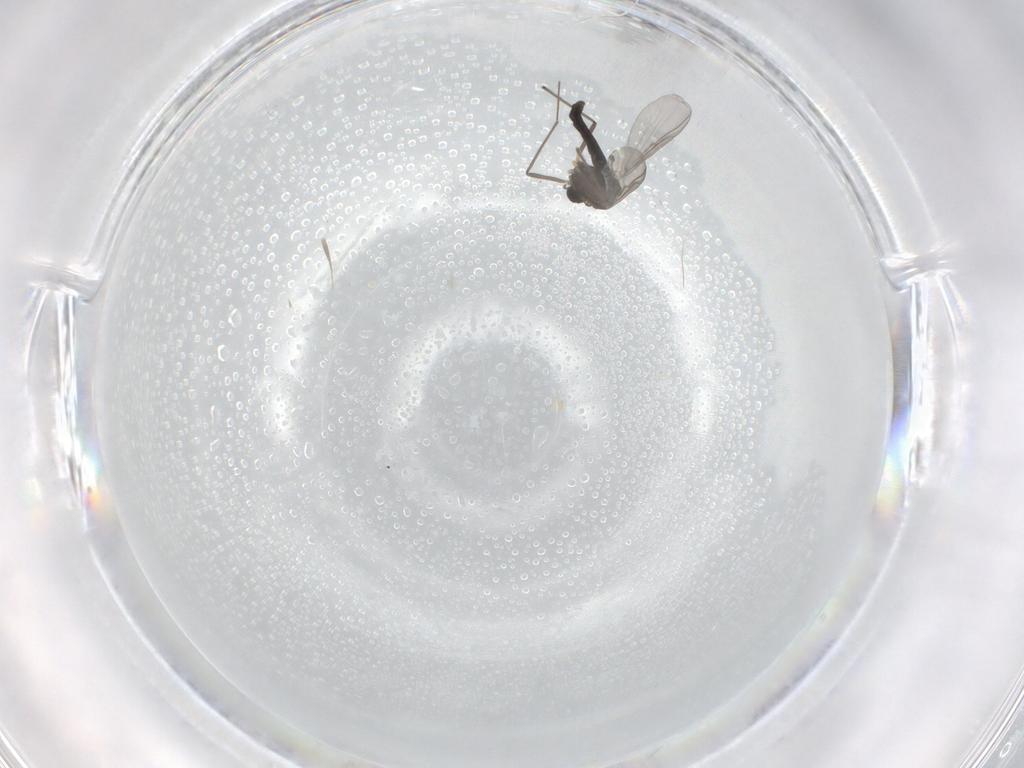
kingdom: Animalia
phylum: Arthropoda
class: Insecta
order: Diptera
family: Chironomidae
